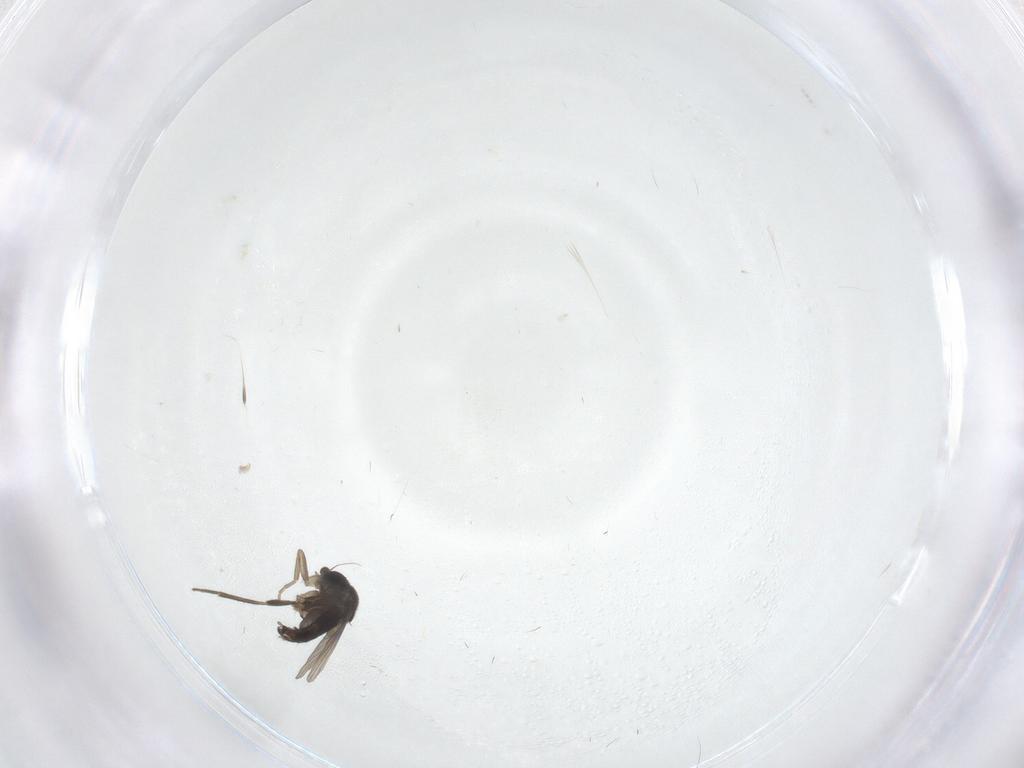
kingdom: Animalia
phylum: Arthropoda
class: Insecta
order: Diptera
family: Phoridae
